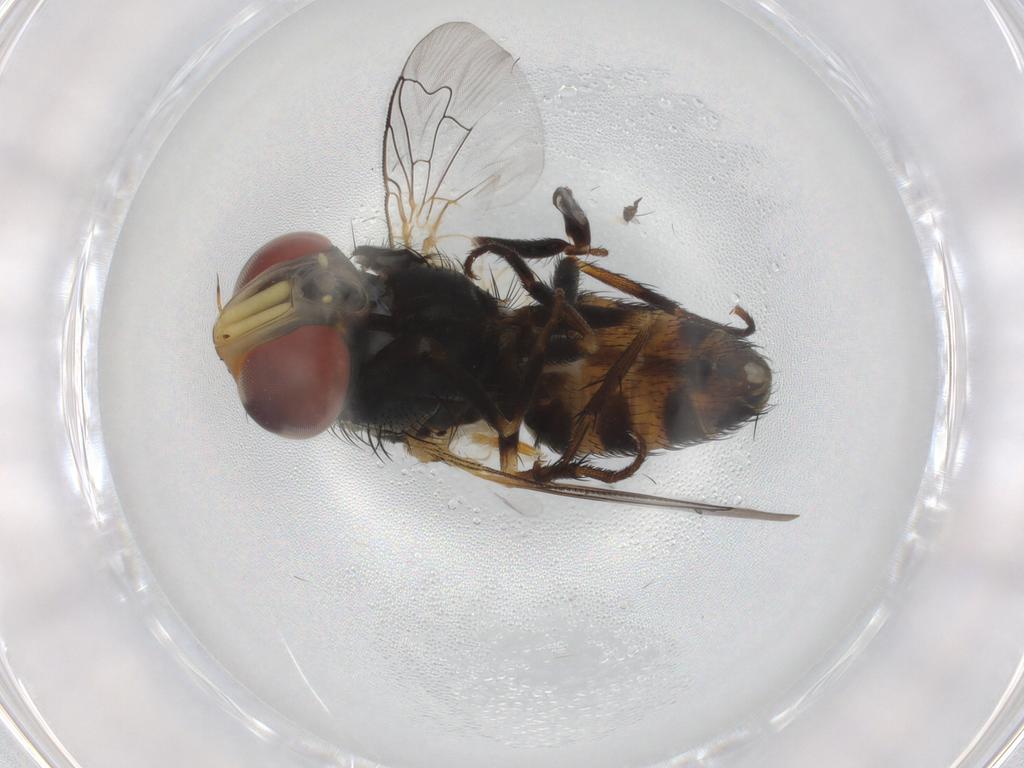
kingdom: Animalia
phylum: Arthropoda
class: Insecta
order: Diptera
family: Sarcophagidae
